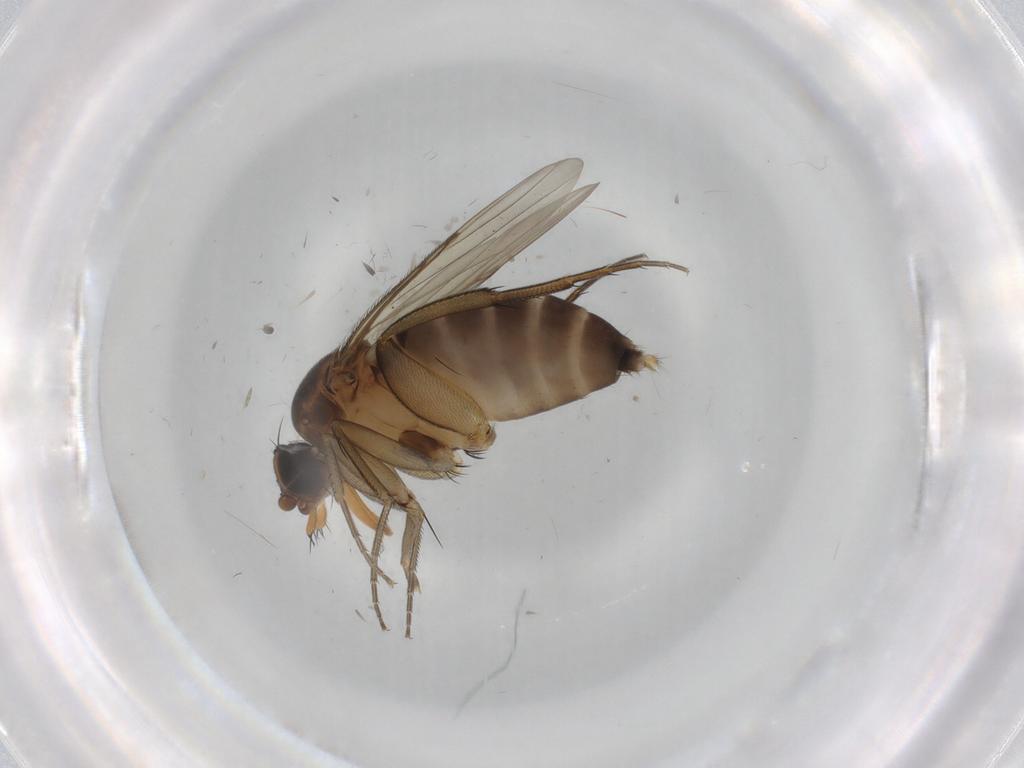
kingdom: Animalia
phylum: Arthropoda
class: Insecta
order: Diptera
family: Phoridae
